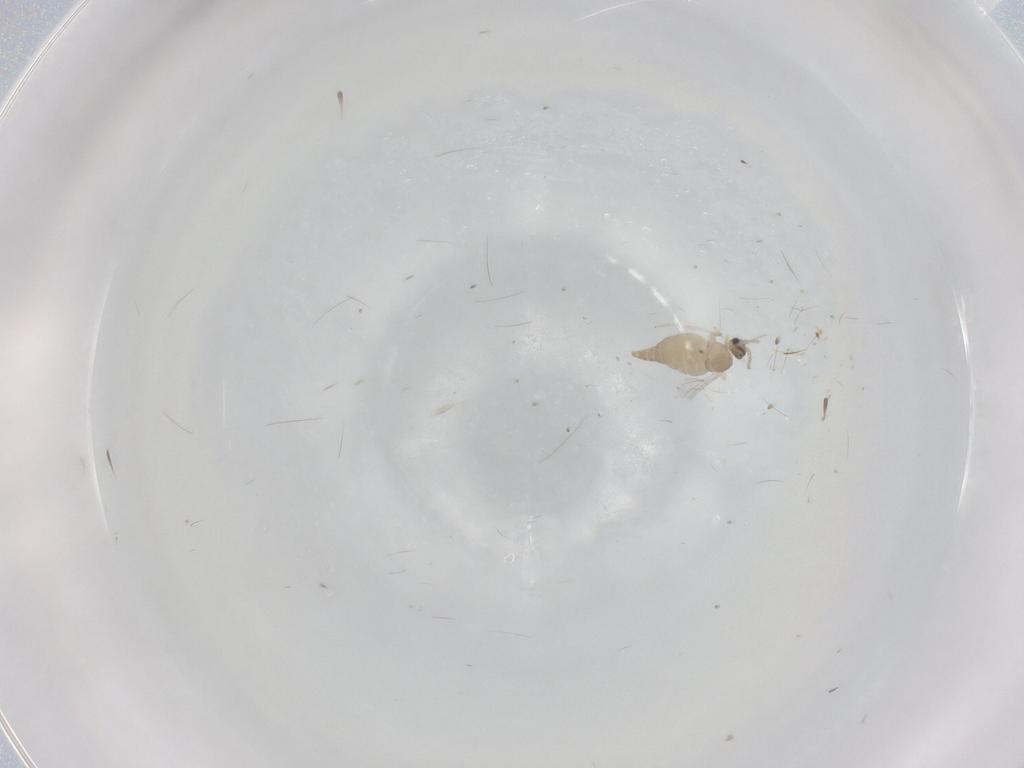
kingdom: Animalia
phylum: Arthropoda
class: Insecta
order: Diptera
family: Cecidomyiidae
